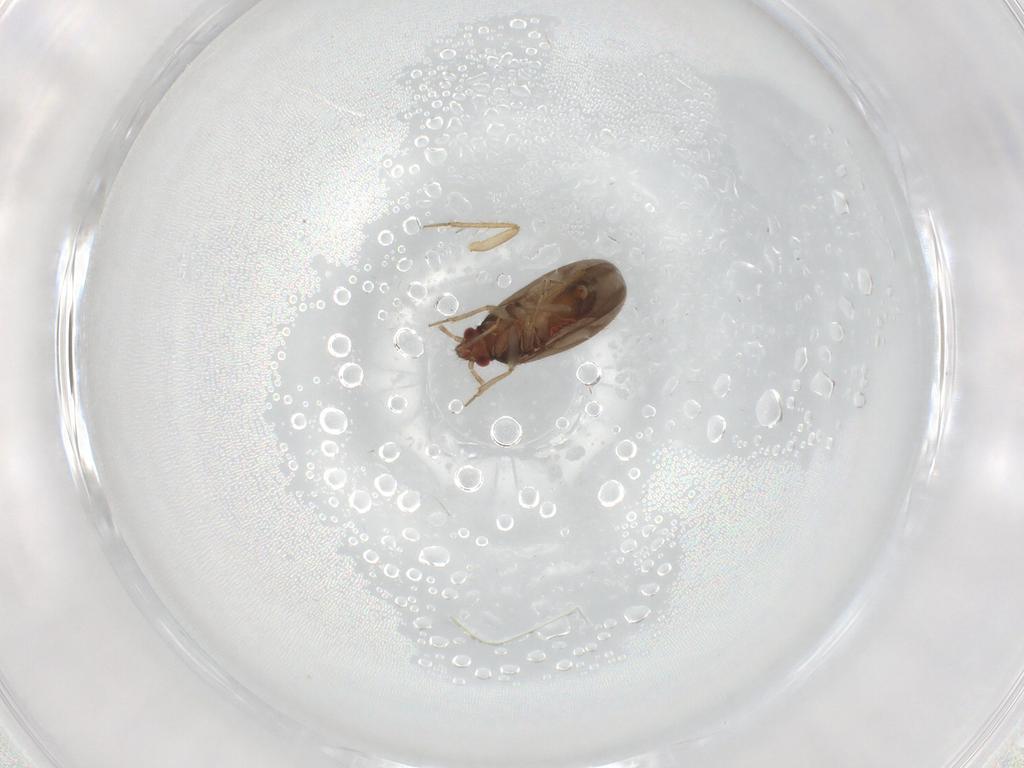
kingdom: Animalia
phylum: Arthropoda
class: Insecta
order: Hemiptera
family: Ceratocombidae
